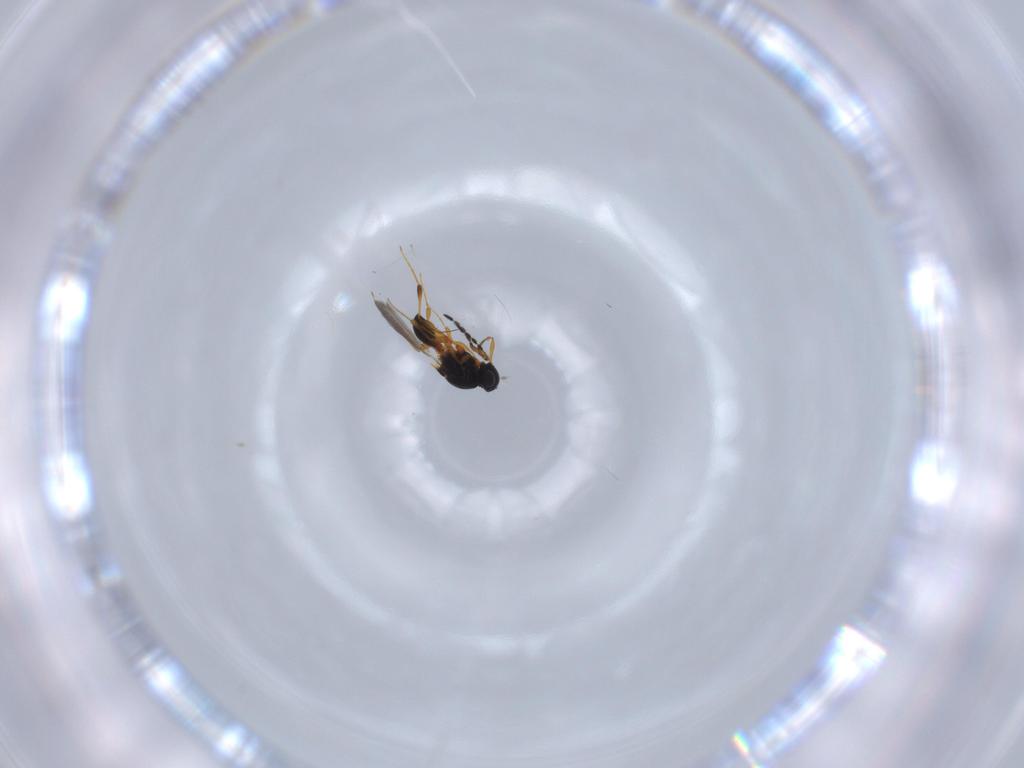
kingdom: Animalia
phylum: Arthropoda
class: Insecta
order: Hymenoptera
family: Platygastridae
